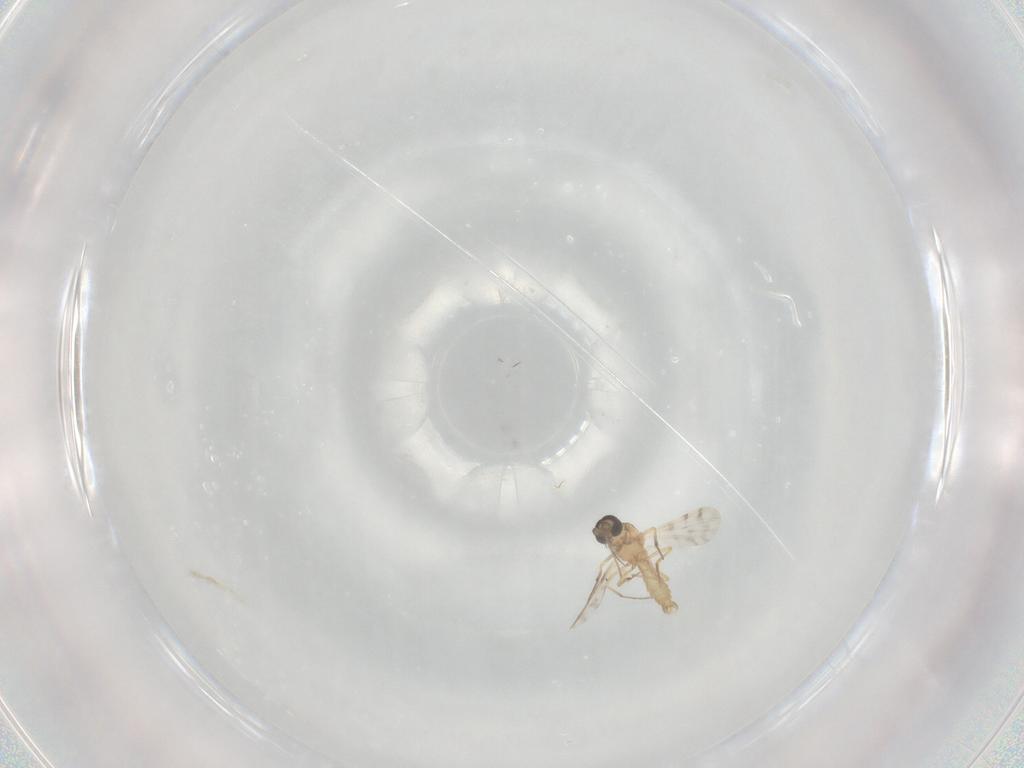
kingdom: Animalia
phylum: Arthropoda
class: Insecta
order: Diptera
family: Ceratopogonidae
